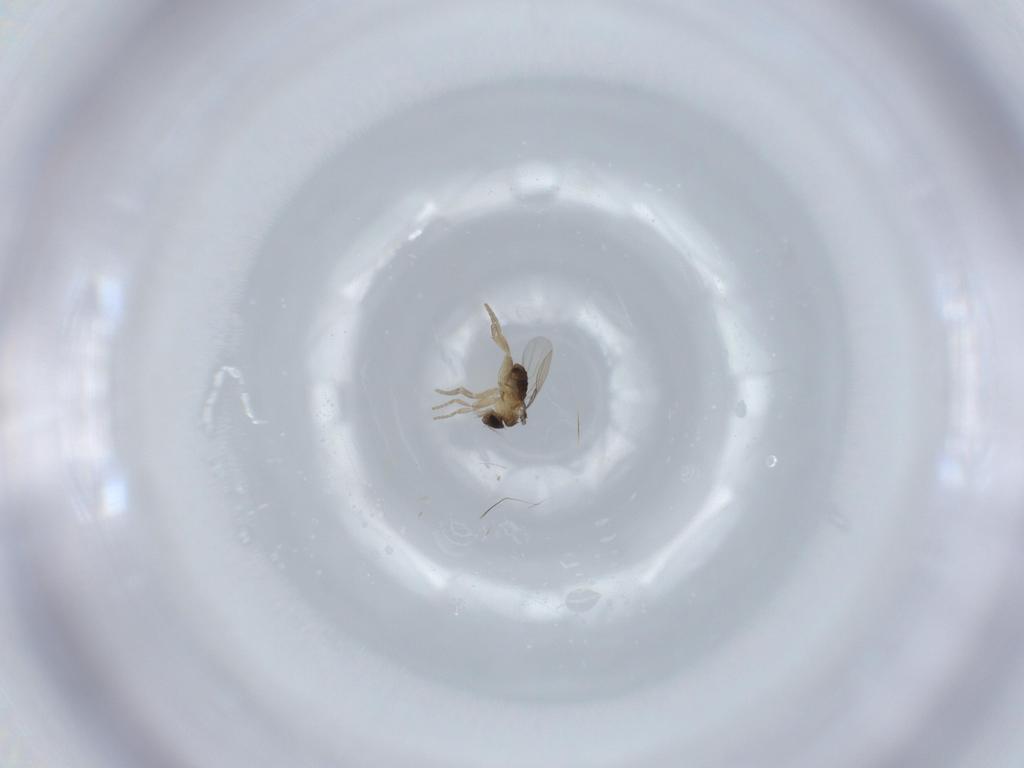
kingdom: Animalia
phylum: Arthropoda
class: Insecta
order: Diptera
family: Phoridae
